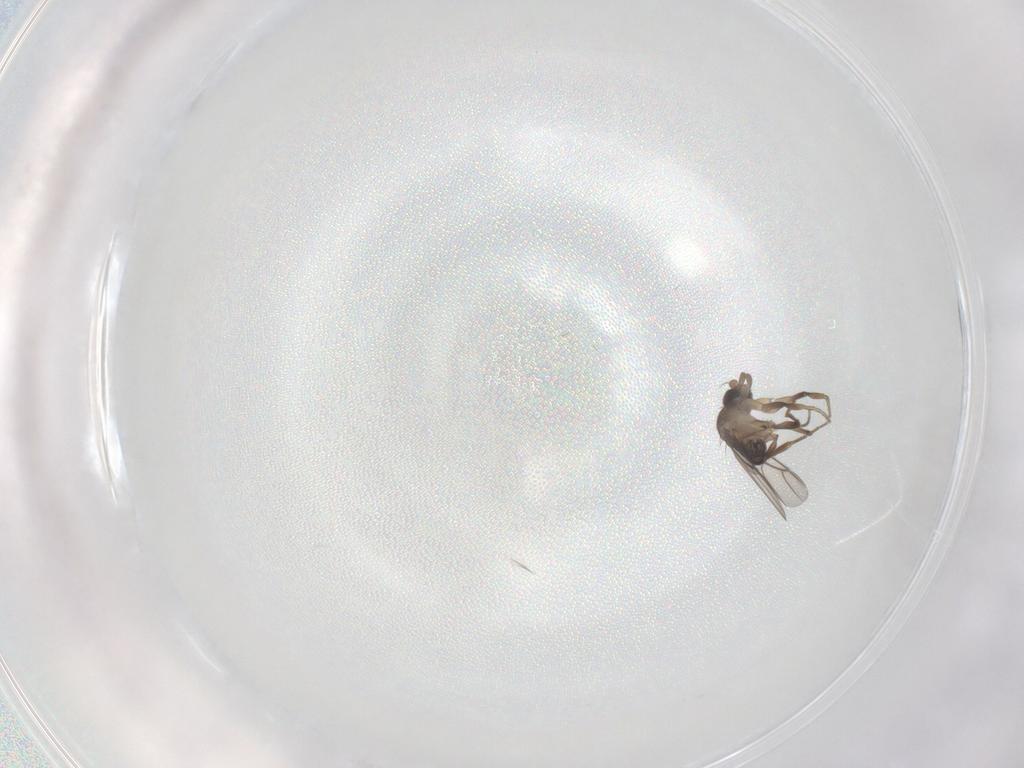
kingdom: Animalia
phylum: Arthropoda
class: Insecta
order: Diptera
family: Phoridae
